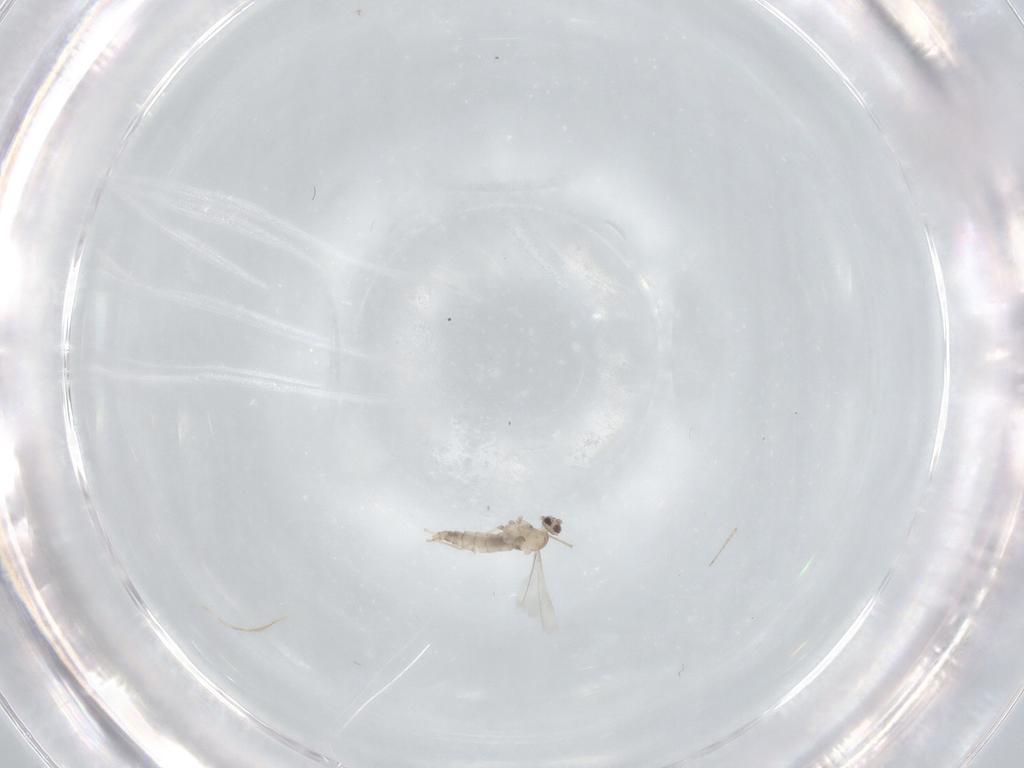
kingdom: Animalia
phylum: Arthropoda
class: Insecta
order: Diptera
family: Cecidomyiidae
